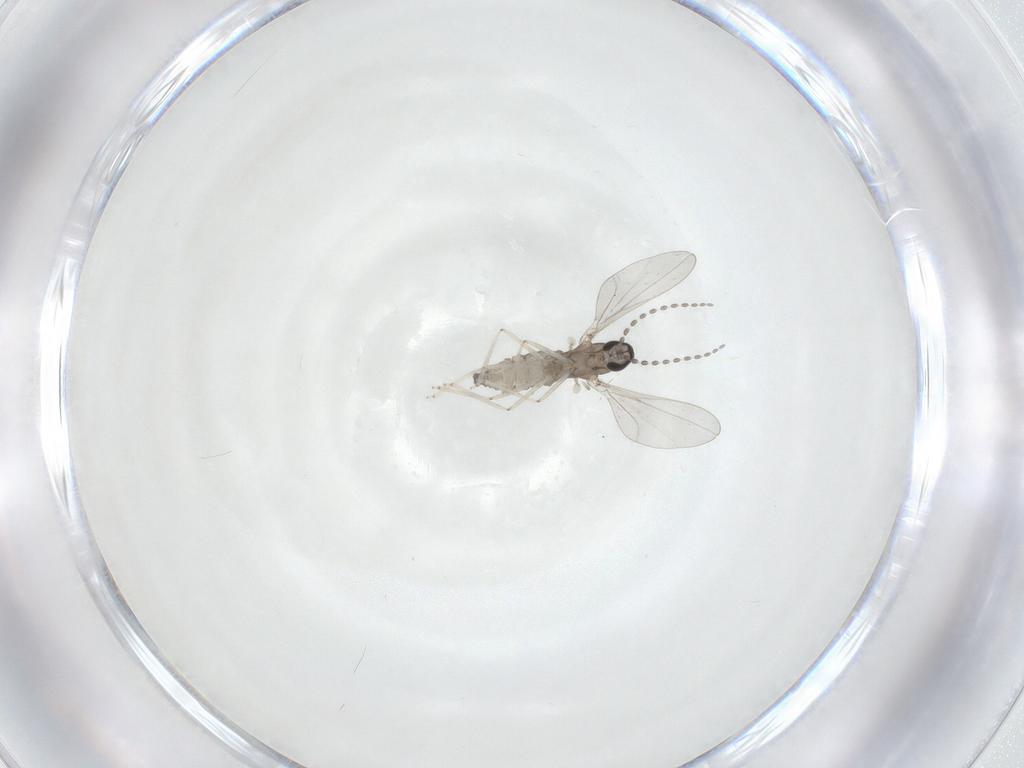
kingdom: Animalia
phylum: Arthropoda
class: Insecta
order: Diptera
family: Cecidomyiidae
